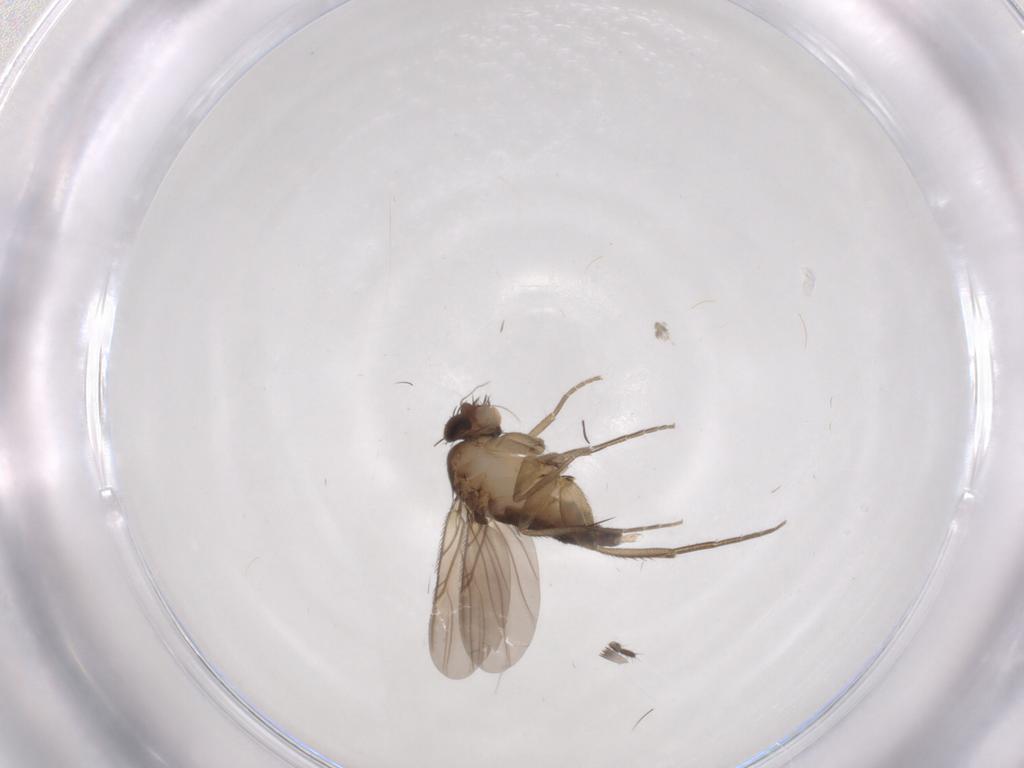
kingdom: Animalia
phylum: Arthropoda
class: Insecta
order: Diptera
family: Phoridae
